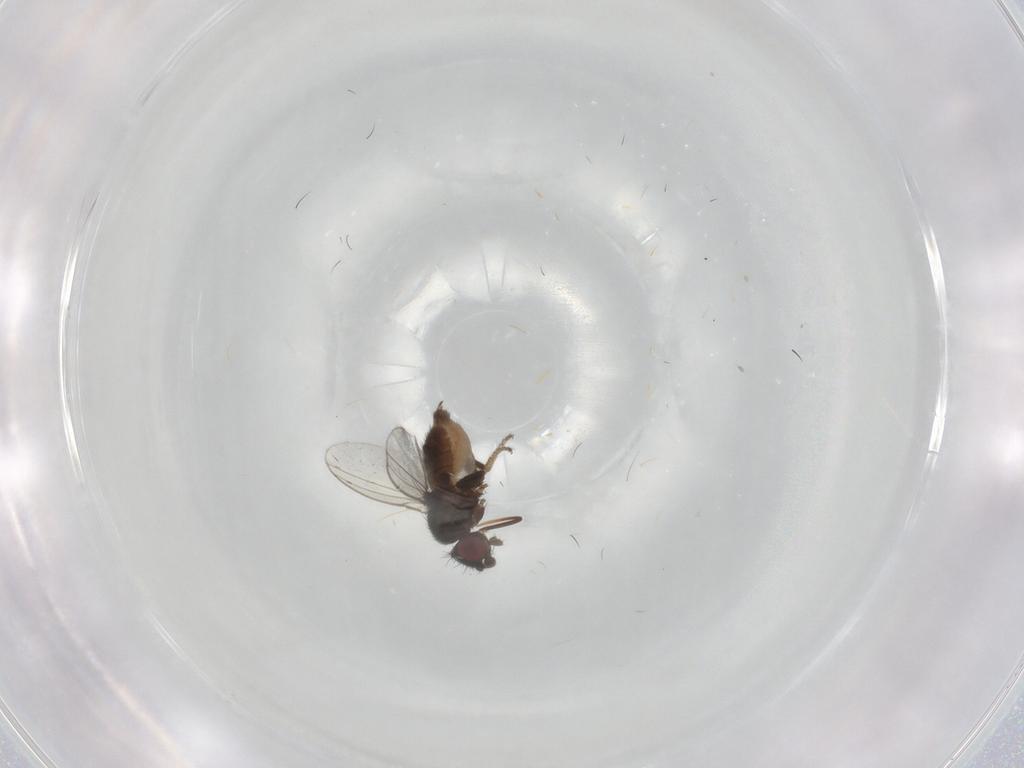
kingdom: Animalia
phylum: Arthropoda
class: Insecta
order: Diptera
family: Milichiidae
